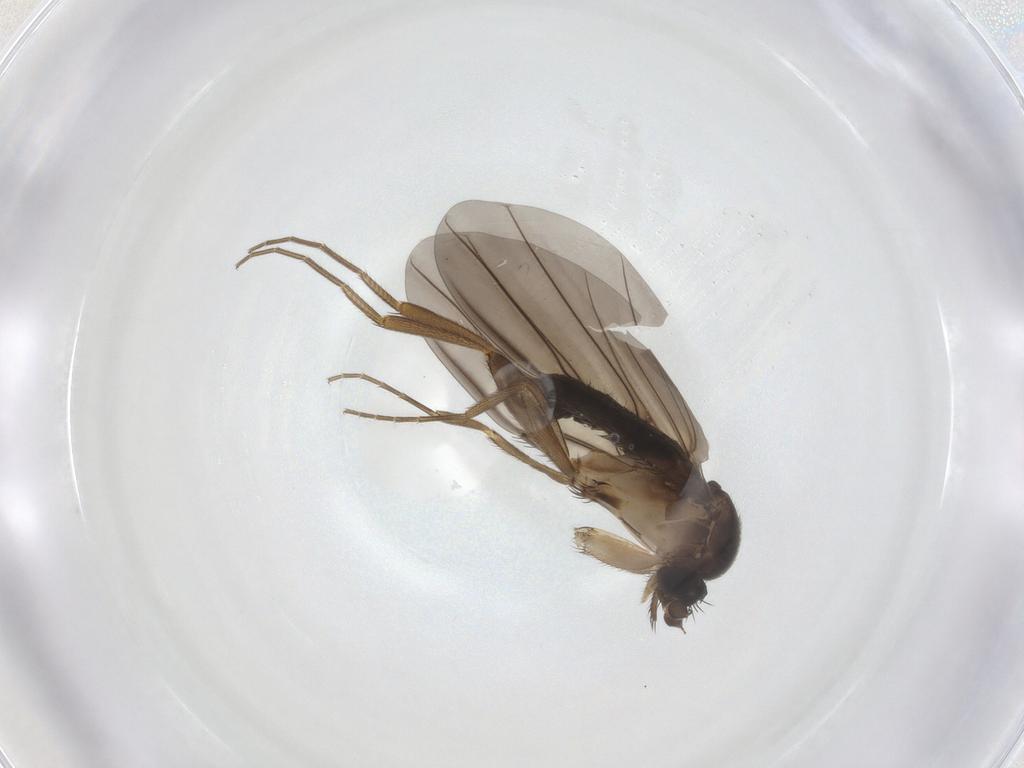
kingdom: Animalia
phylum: Arthropoda
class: Insecta
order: Diptera
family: Phoridae
